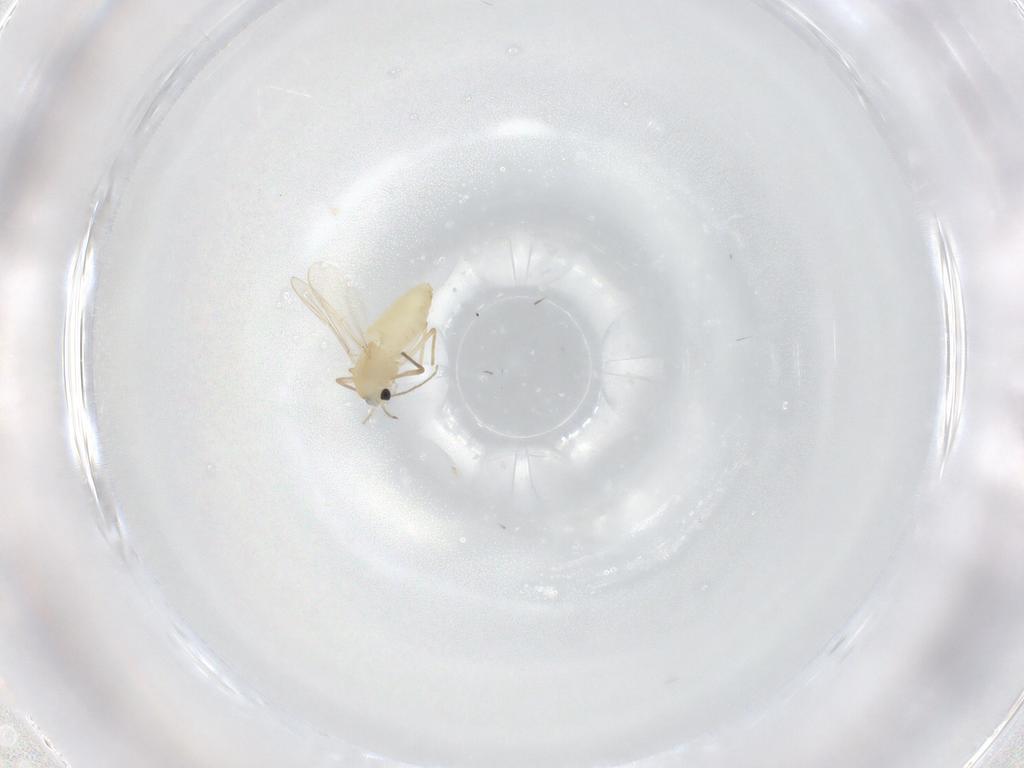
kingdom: Animalia
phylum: Arthropoda
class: Insecta
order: Diptera
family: Chironomidae
